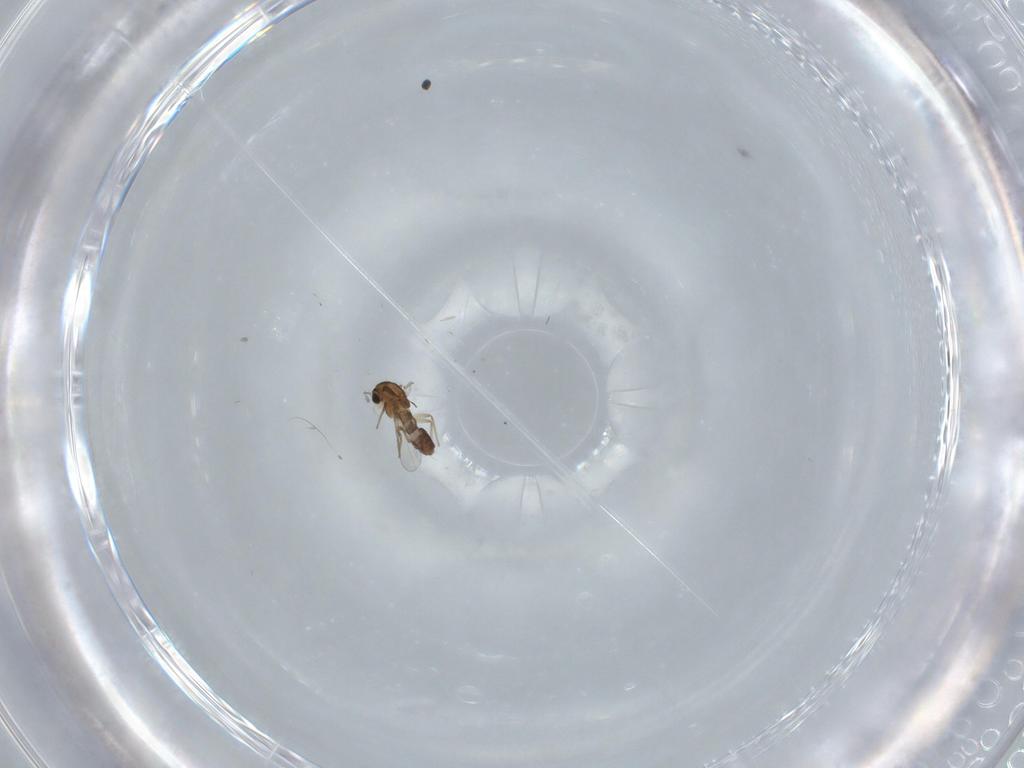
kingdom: Animalia
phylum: Arthropoda
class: Insecta
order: Diptera
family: Chironomidae
